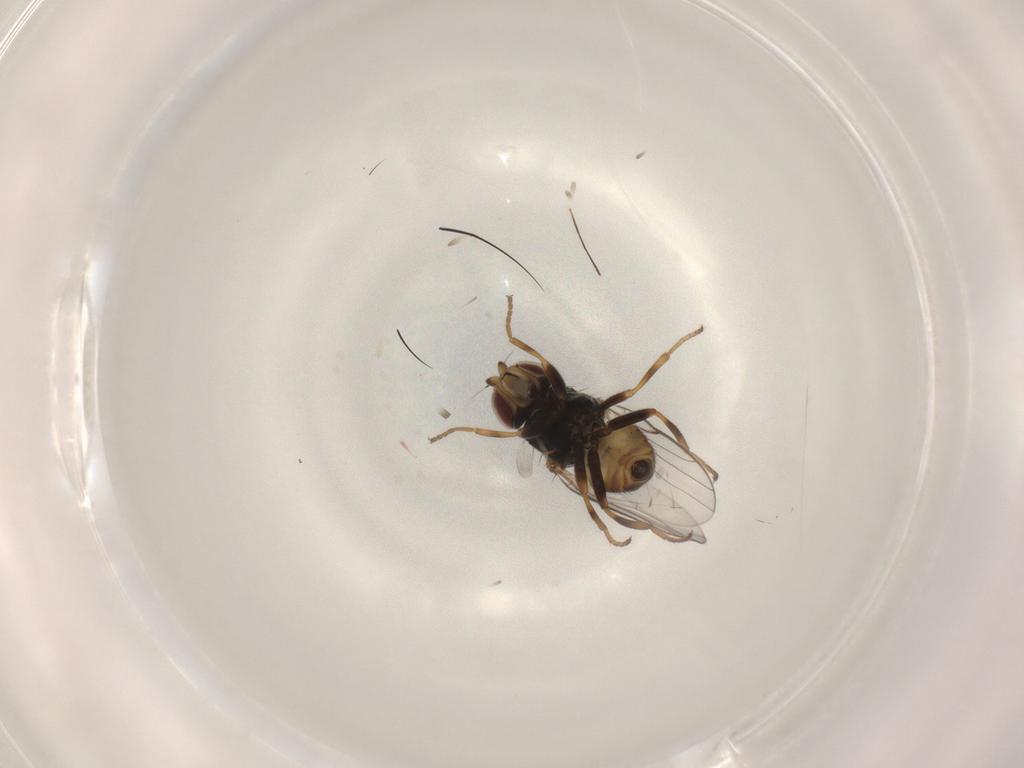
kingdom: Animalia
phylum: Arthropoda
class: Insecta
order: Diptera
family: Chloropidae
